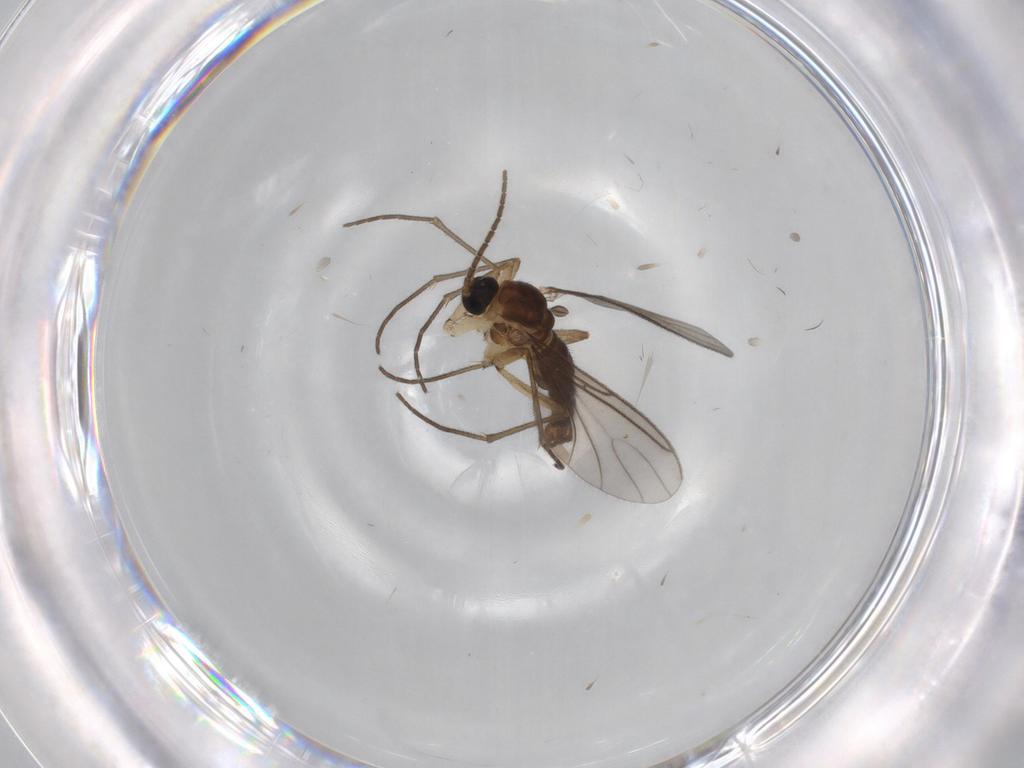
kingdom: Animalia
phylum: Arthropoda
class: Insecta
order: Diptera
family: Sciaridae
